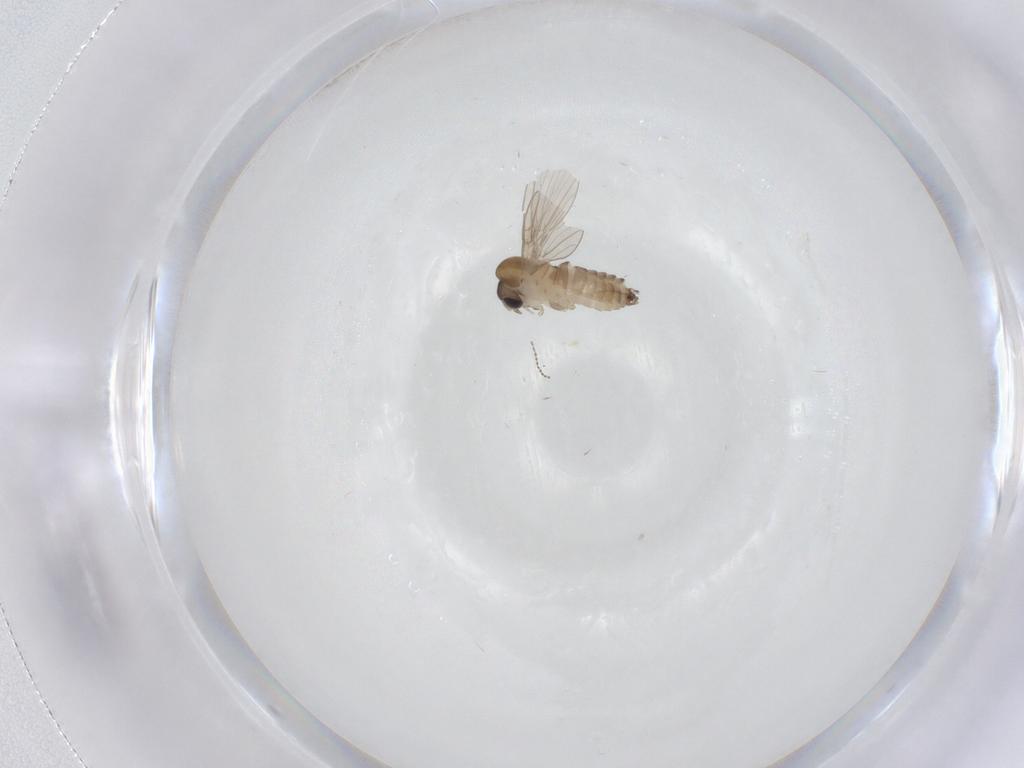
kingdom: Animalia
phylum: Arthropoda
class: Insecta
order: Diptera
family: Cecidomyiidae
